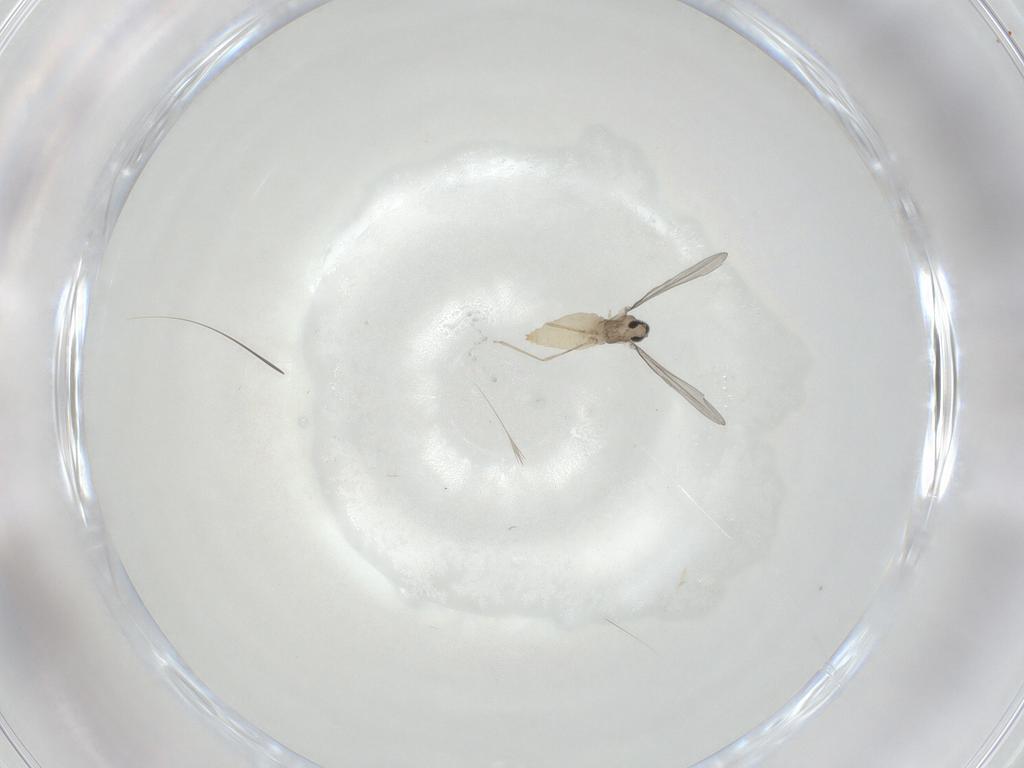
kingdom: Animalia
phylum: Arthropoda
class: Insecta
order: Diptera
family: Cecidomyiidae
